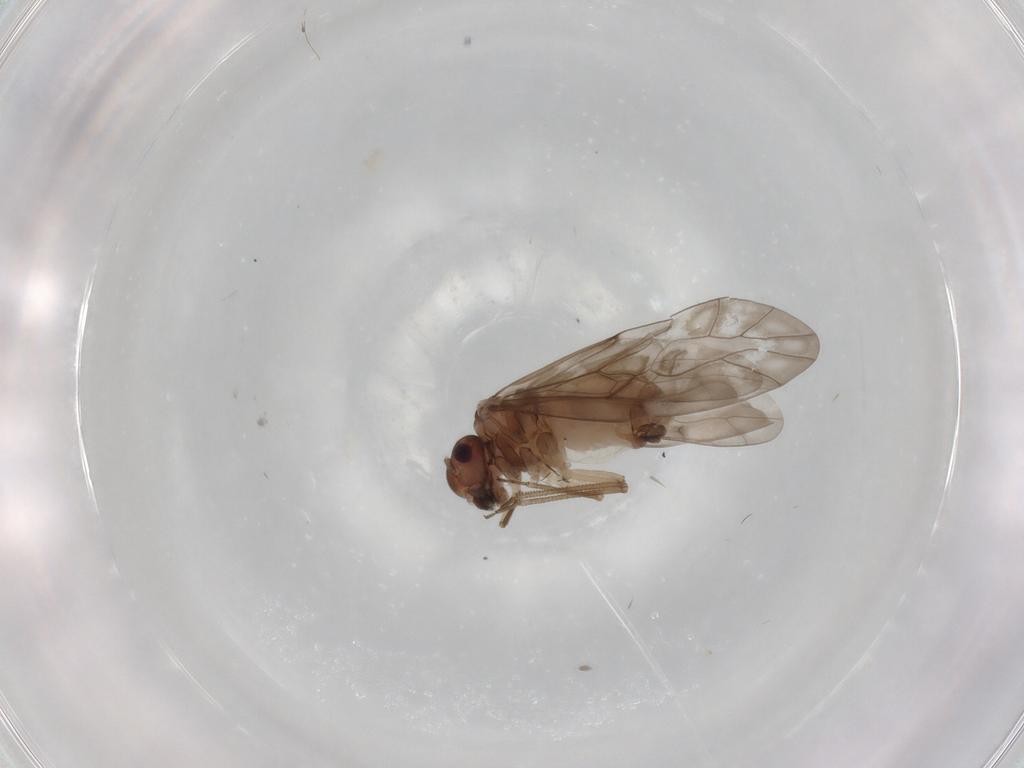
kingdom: Animalia
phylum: Arthropoda
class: Insecta
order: Psocodea
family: Peripsocidae
